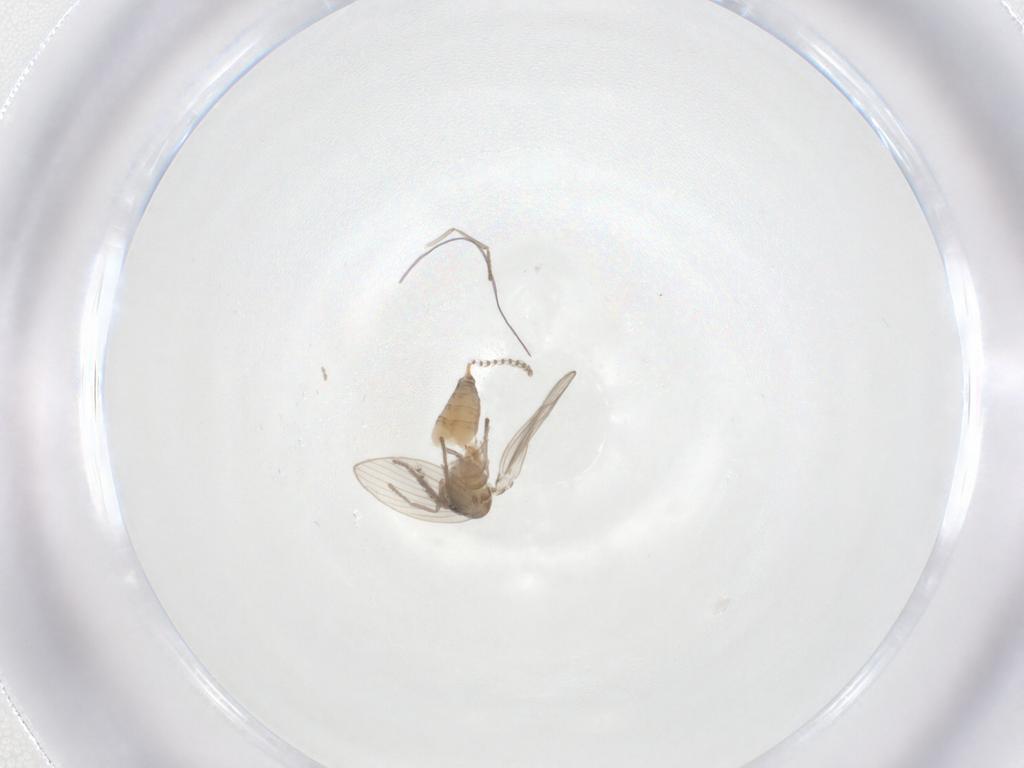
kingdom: Animalia
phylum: Arthropoda
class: Insecta
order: Diptera
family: Psychodidae
